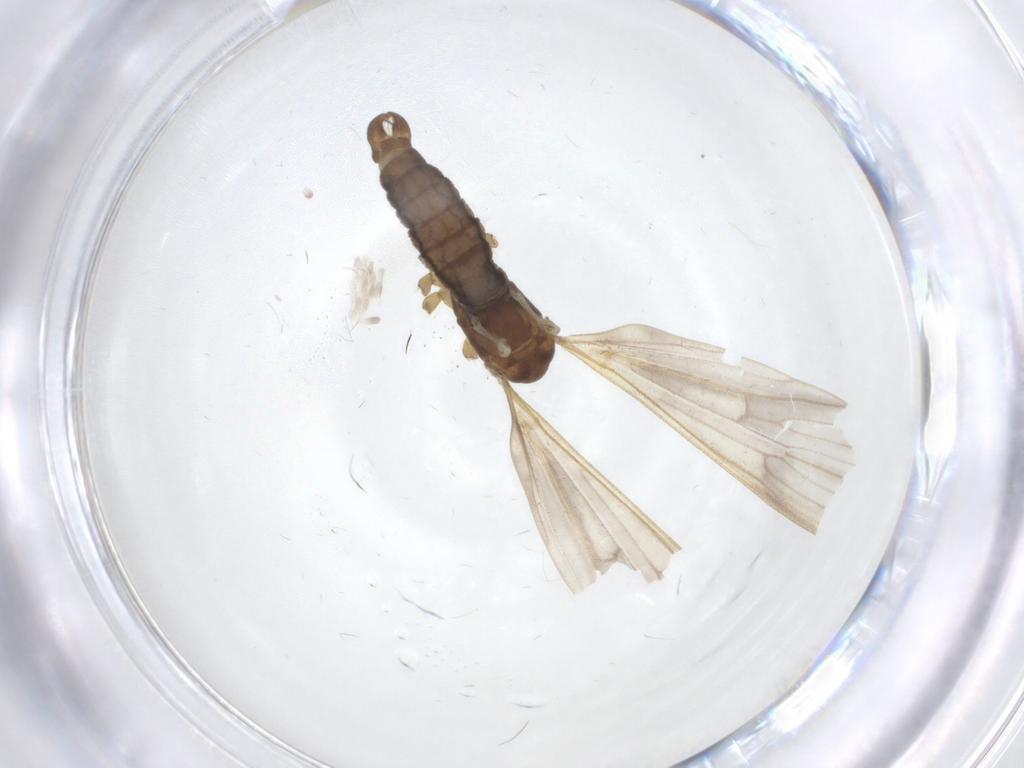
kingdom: Animalia
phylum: Arthropoda
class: Insecta
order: Diptera
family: Limoniidae
